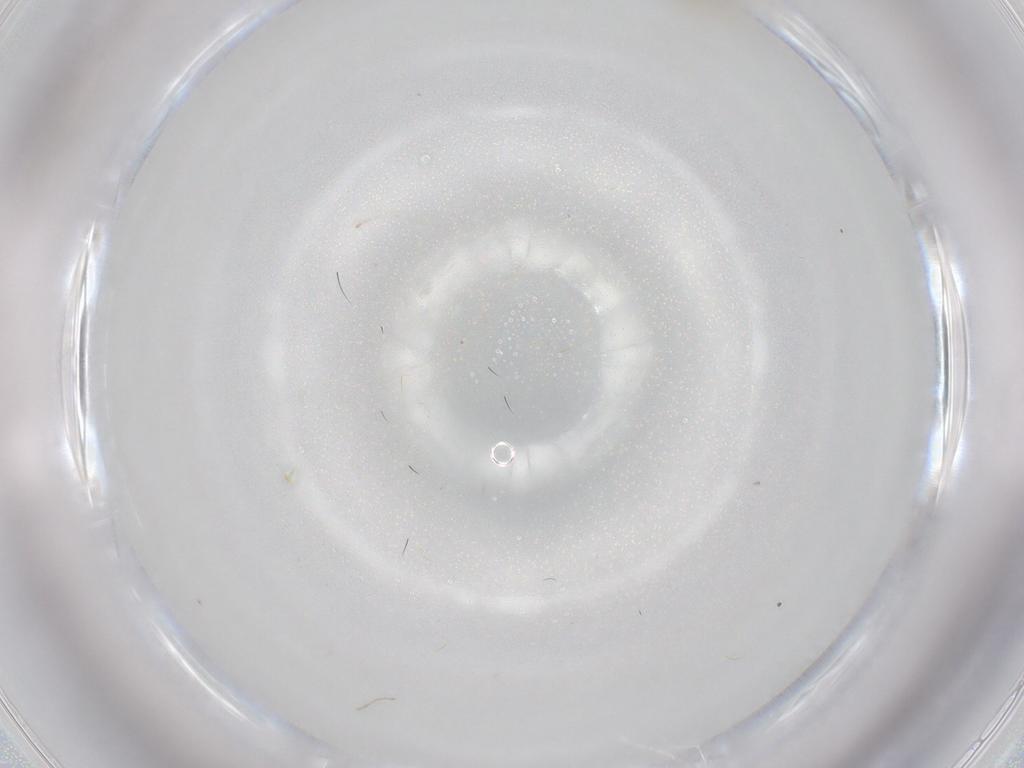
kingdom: Animalia
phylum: Arthropoda
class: Insecta
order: Diptera
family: Cecidomyiidae
